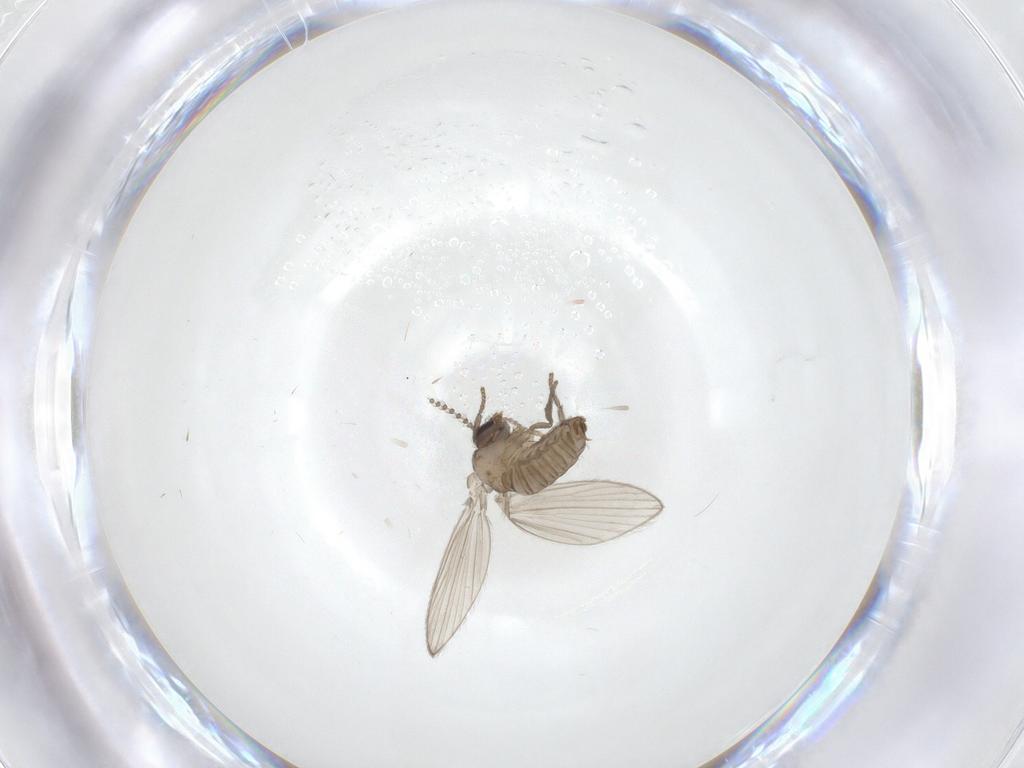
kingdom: Animalia
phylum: Arthropoda
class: Insecta
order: Diptera
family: Psychodidae
